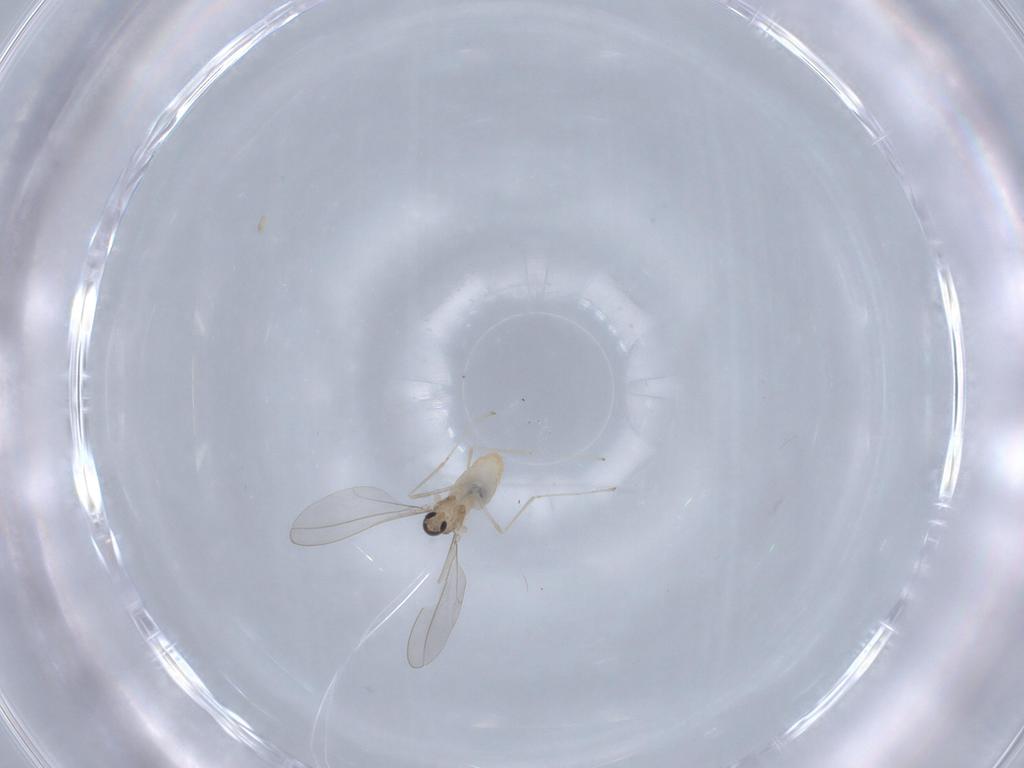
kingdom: Animalia
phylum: Arthropoda
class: Insecta
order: Diptera
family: Cecidomyiidae
